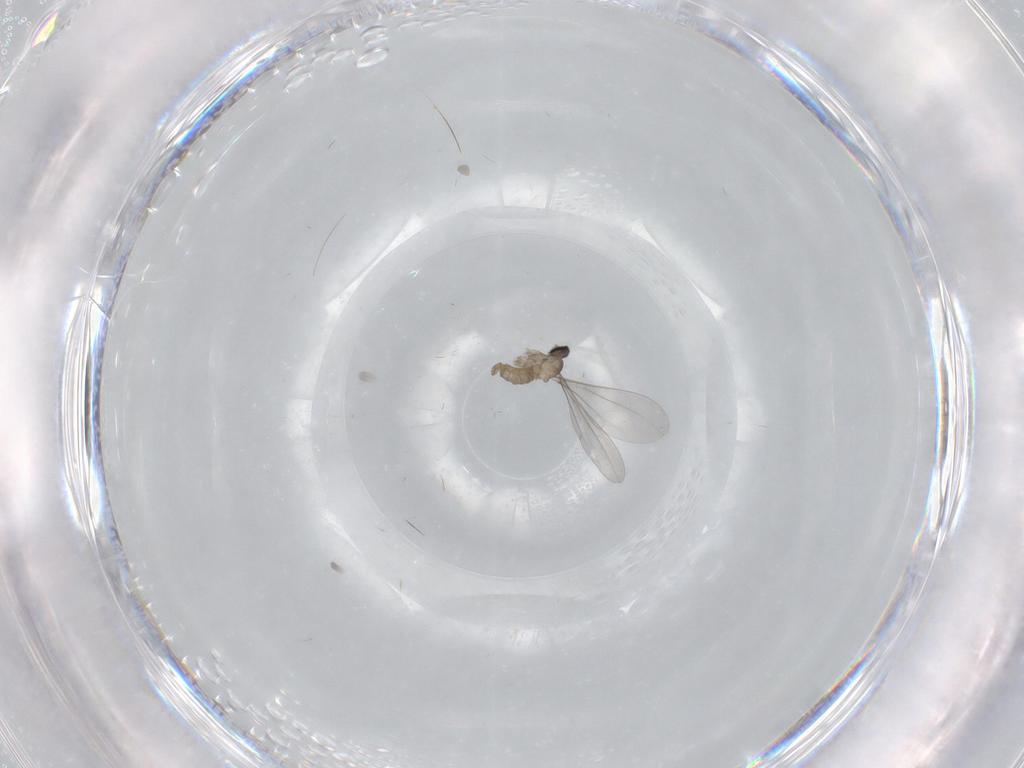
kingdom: Animalia
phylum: Arthropoda
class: Insecta
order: Diptera
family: Cecidomyiidae
